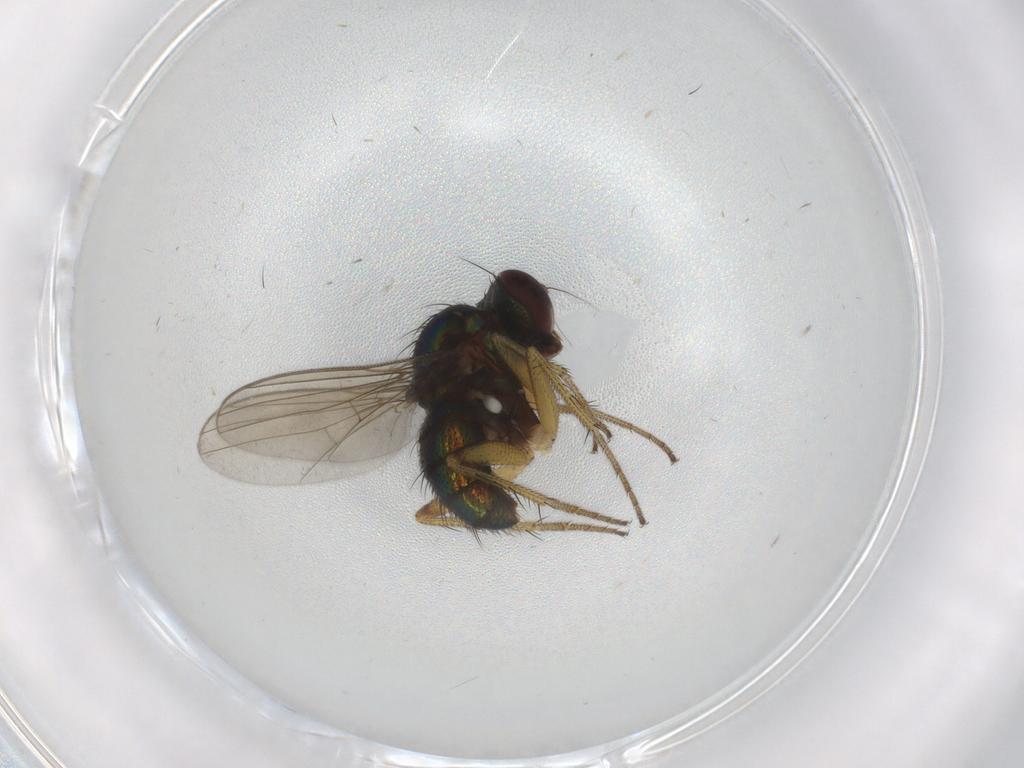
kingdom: Animalia
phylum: Arthropoda
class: Insecta
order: Diptera
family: Dolichopodidae
